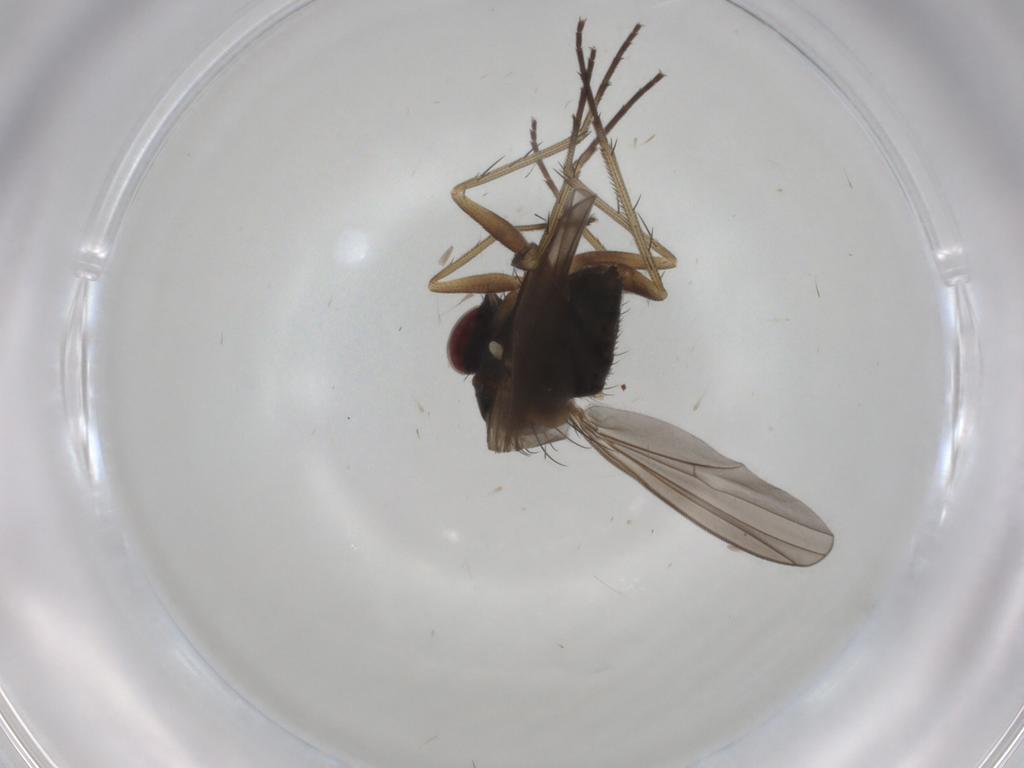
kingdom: Animalia
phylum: Arthropoda
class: Insecta
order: Diptera
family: Dolichopodidae
